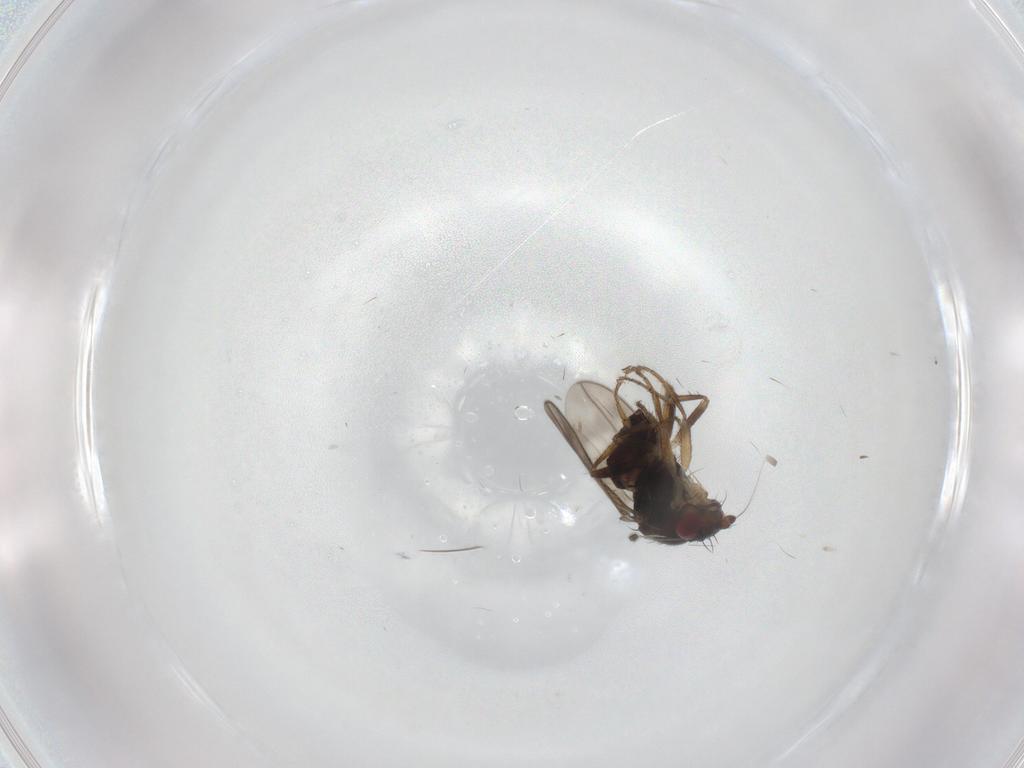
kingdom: Animalia
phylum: Arthropoda
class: Insecta
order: Diptera
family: Sphaeroceridae
